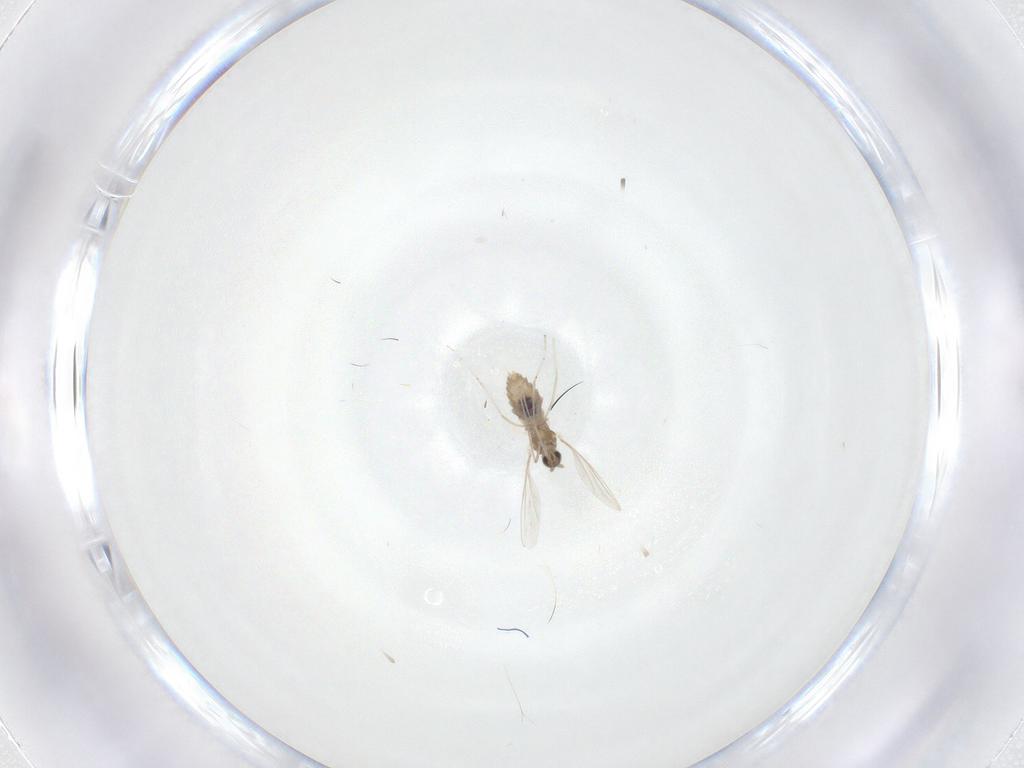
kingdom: Animalia
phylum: Arthropoda
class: Insecta
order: Diptera
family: Cecidomyiidae
